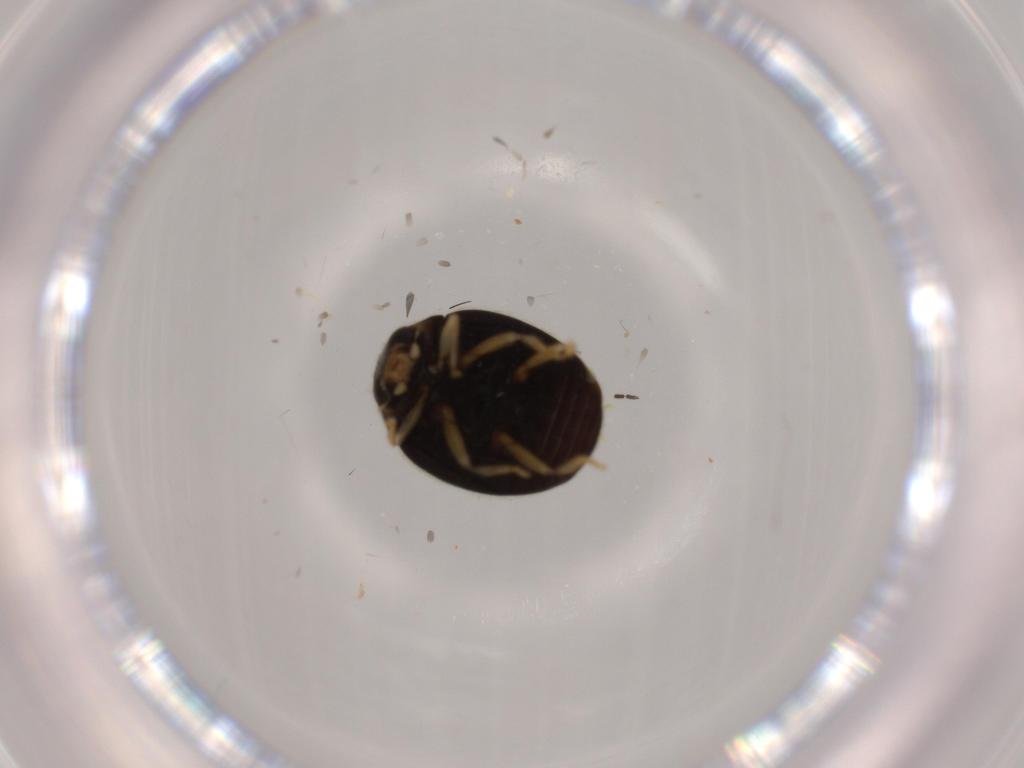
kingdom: Animalia
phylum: Arthropoda
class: Insecta
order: Coleoptera
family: Coccinellidae
